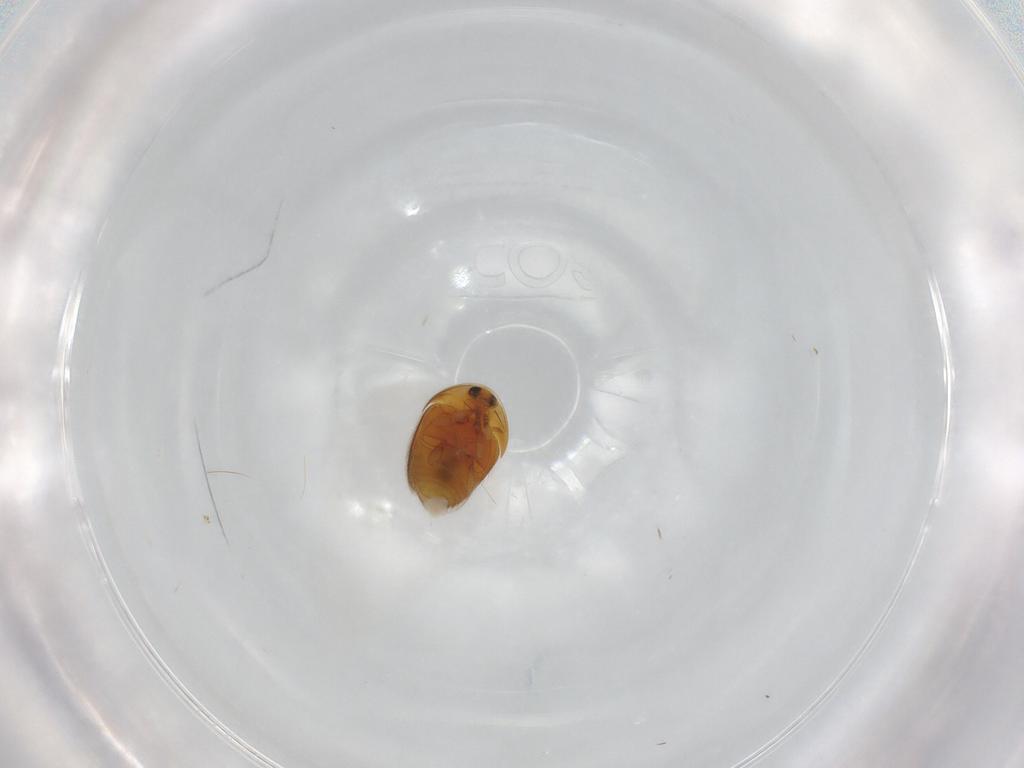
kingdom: Animalia
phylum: Arthropoda
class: Insecta
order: Coleoptera
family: Corylophidae
